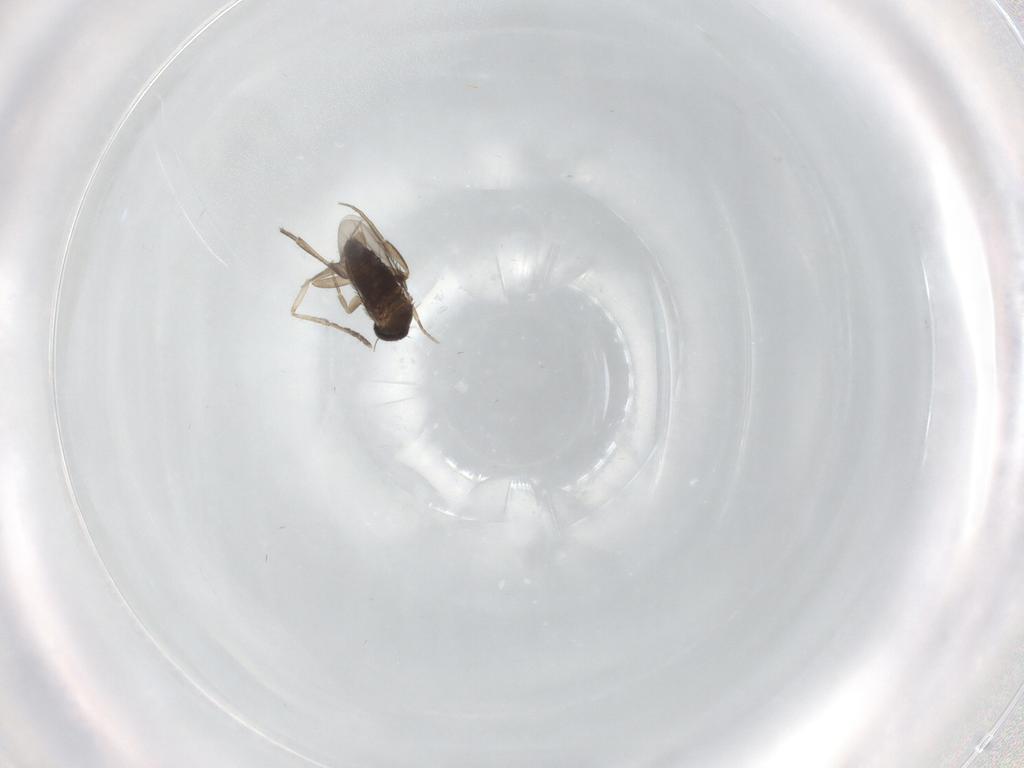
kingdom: Animalia
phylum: Arthropoda
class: Insecta
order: Diptera
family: Phoridae
